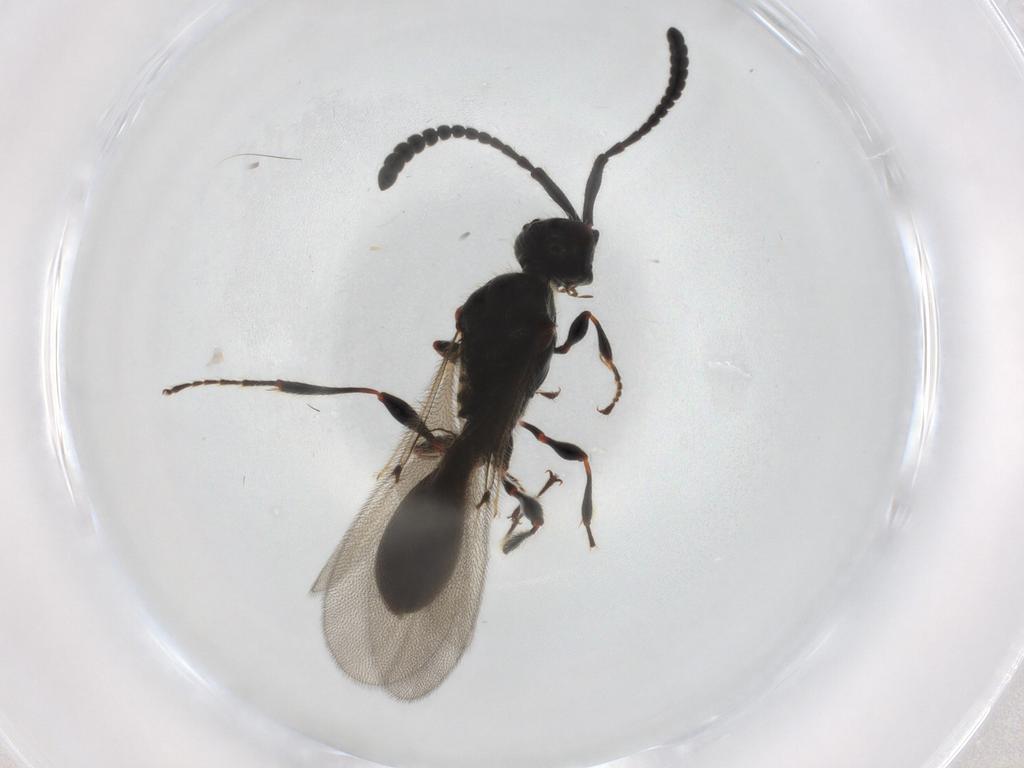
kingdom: Animalia
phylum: Arthropoda
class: Insecta
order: Hymenoptera
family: Diapriidae
